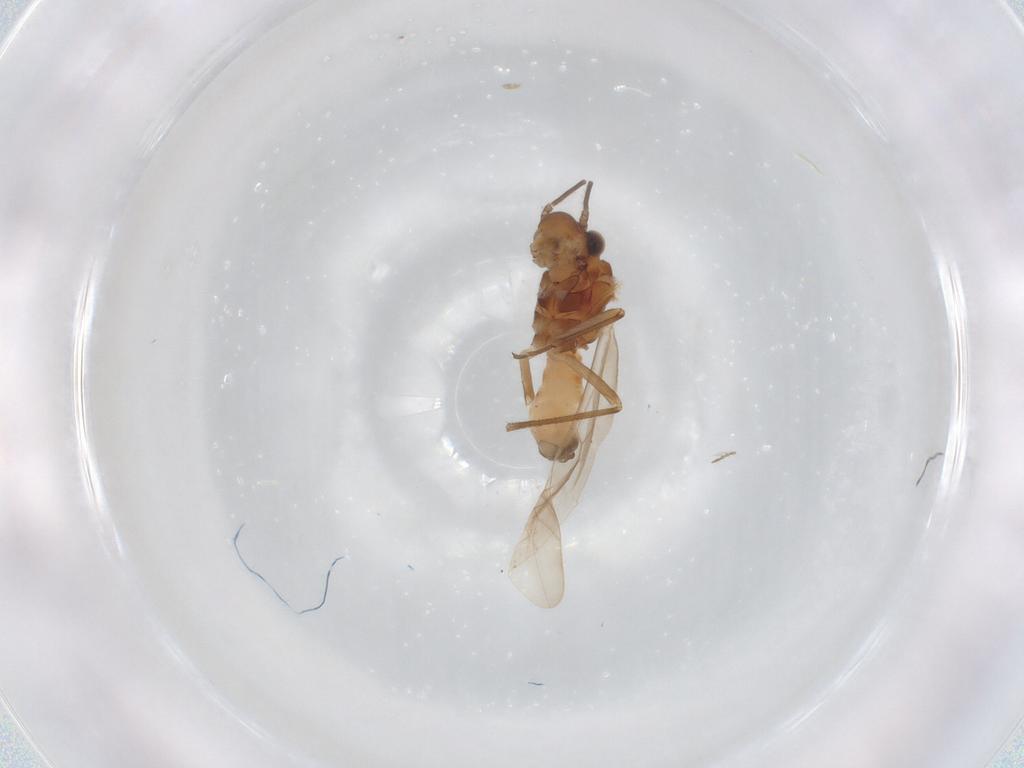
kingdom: Animalia
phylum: Arthropoda
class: Insecta
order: Psocodea
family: Caeciliusidae
